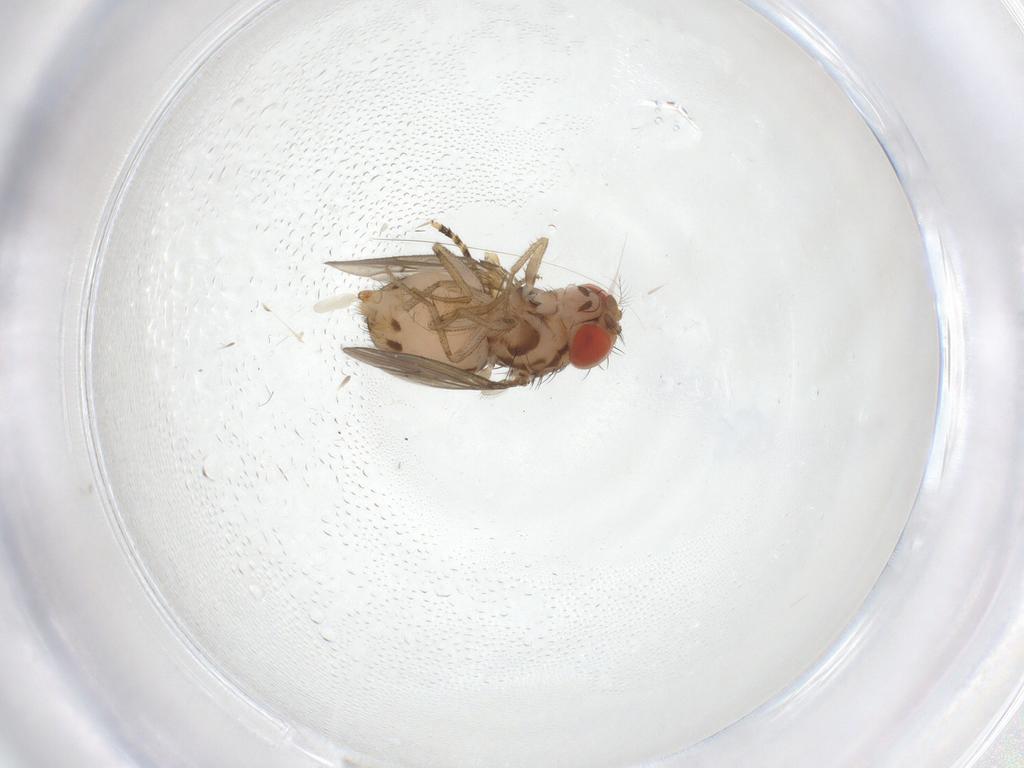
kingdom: Animalia
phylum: Arthropoda
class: Insecta
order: Diptera
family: Drosophilidae
